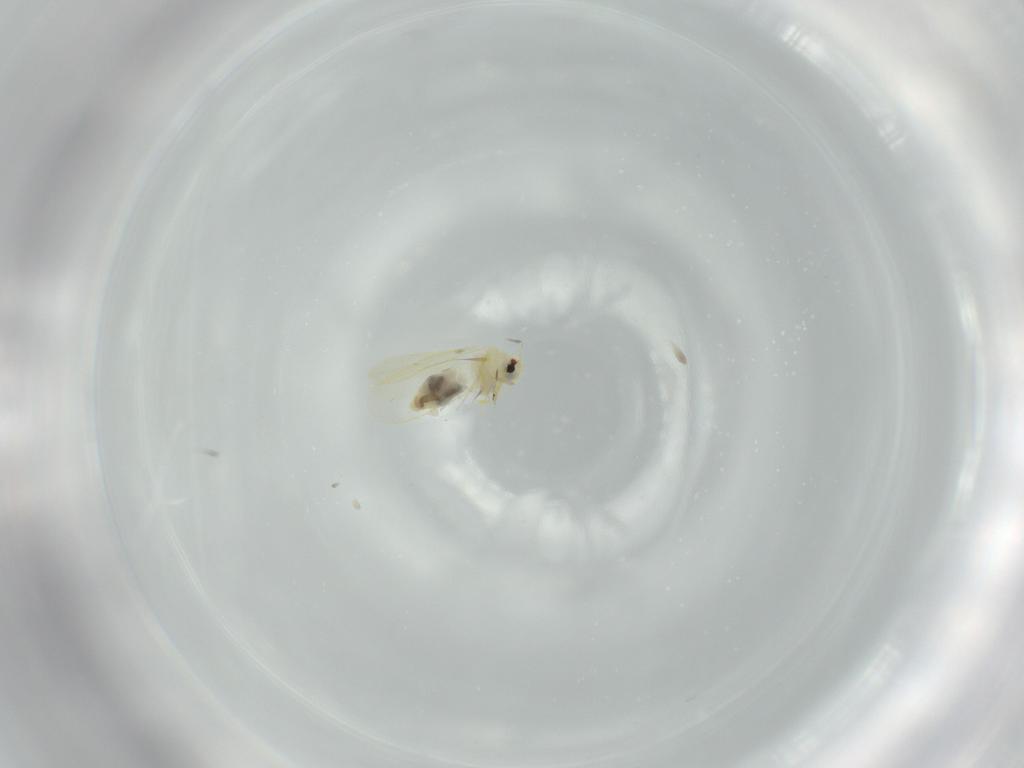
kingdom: Animalia
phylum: Arthropoda
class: Insecta
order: Hemiptera
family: Aleyrodidae
